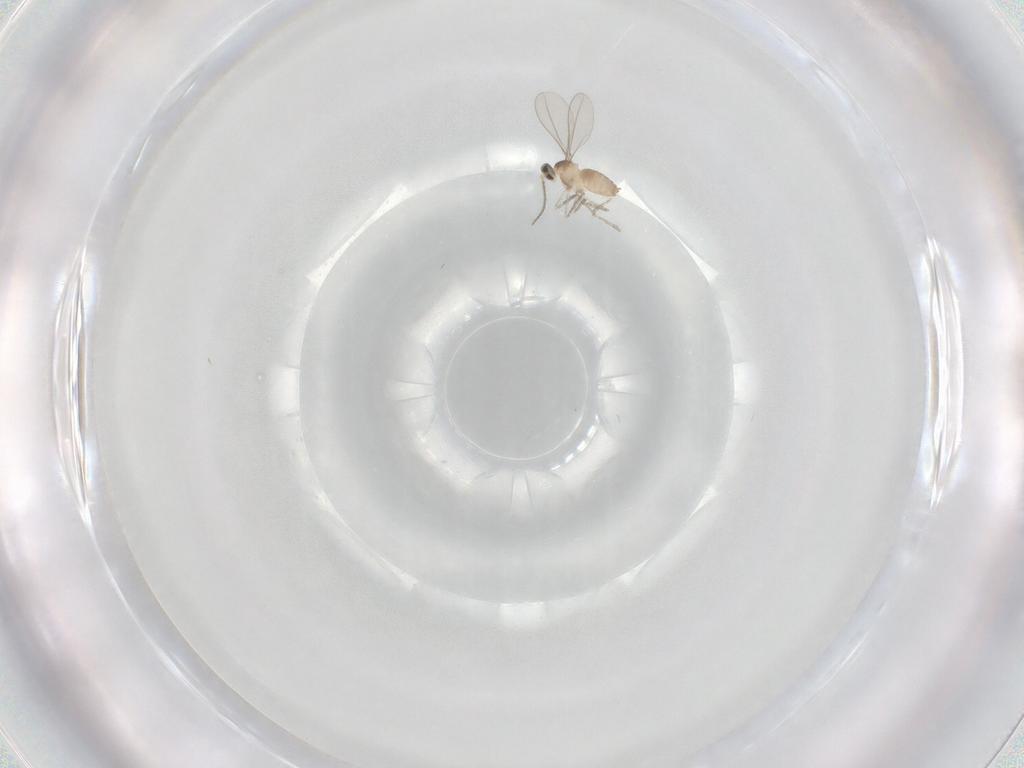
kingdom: Animalia
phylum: Arthropoda
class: Insecta
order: Diptera
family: Cecidomyiidae
